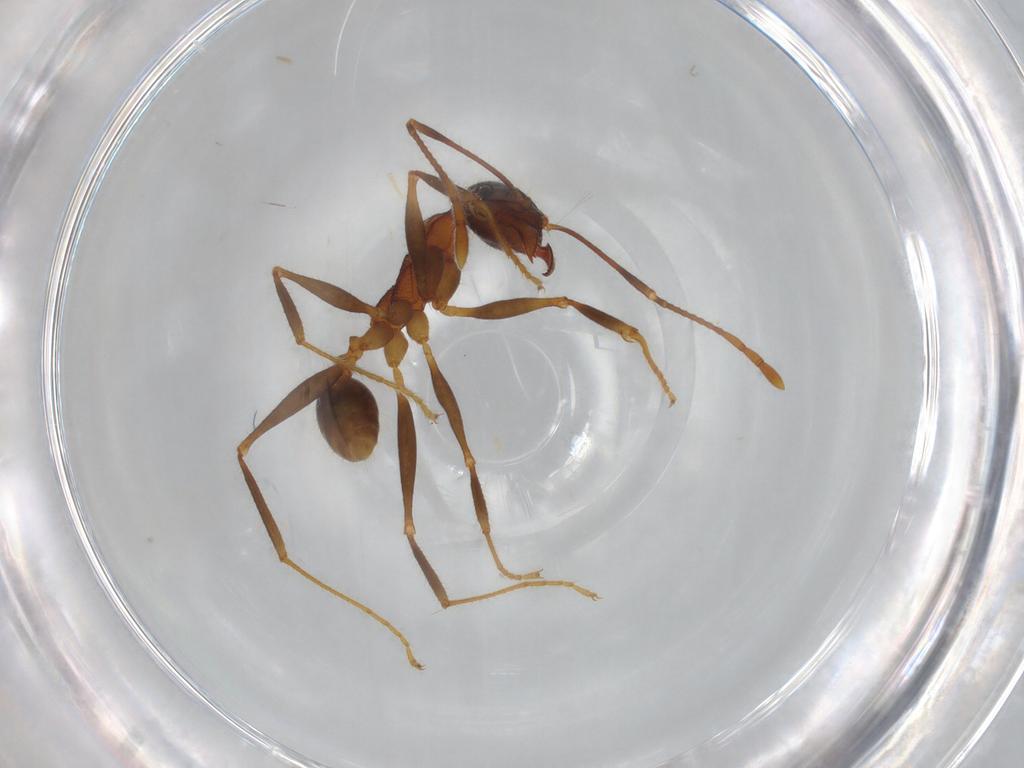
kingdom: Animalia
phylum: Arthropoda
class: Insecta
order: Hymenoptera
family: Formicidae
